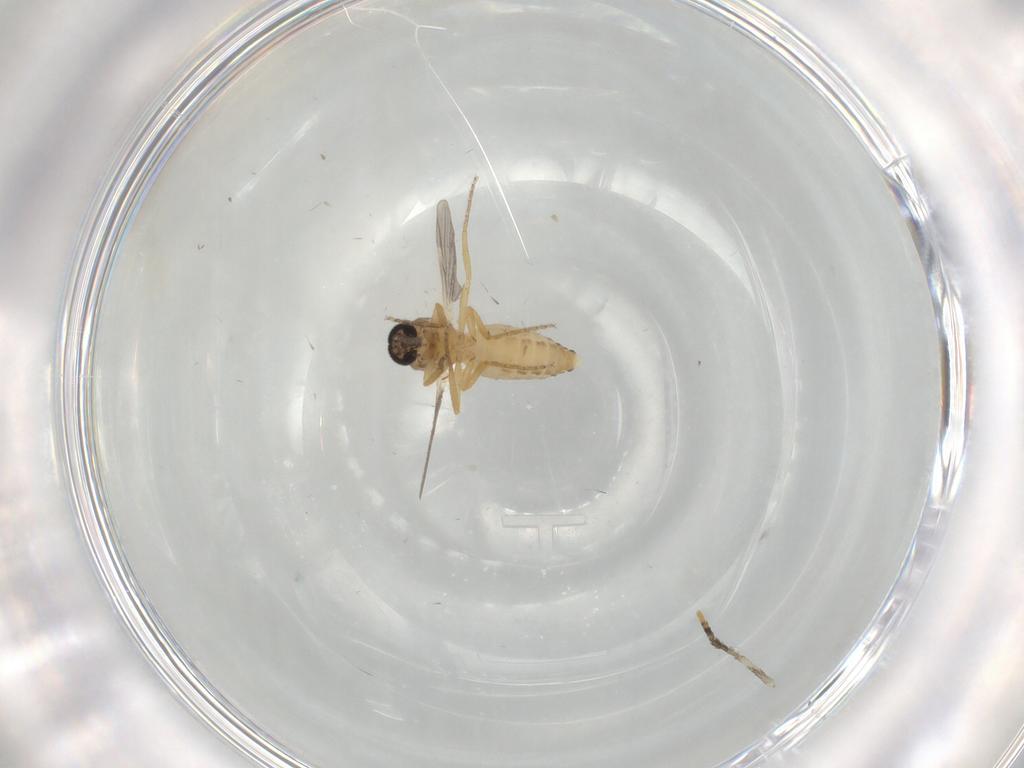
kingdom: Animalia
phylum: Arthropoda
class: Insecta
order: Diptera
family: Ceratopogonidae
